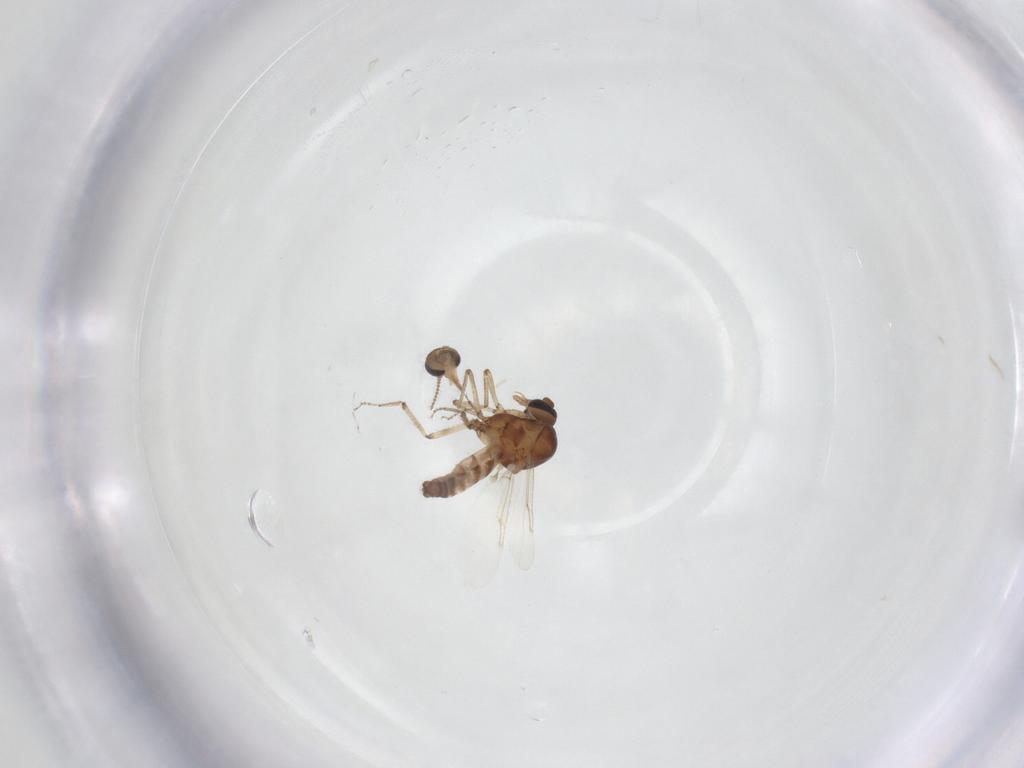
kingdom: Animalia
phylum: Arthropoda
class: Insecta
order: Diptera
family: Ceratopogonidae
